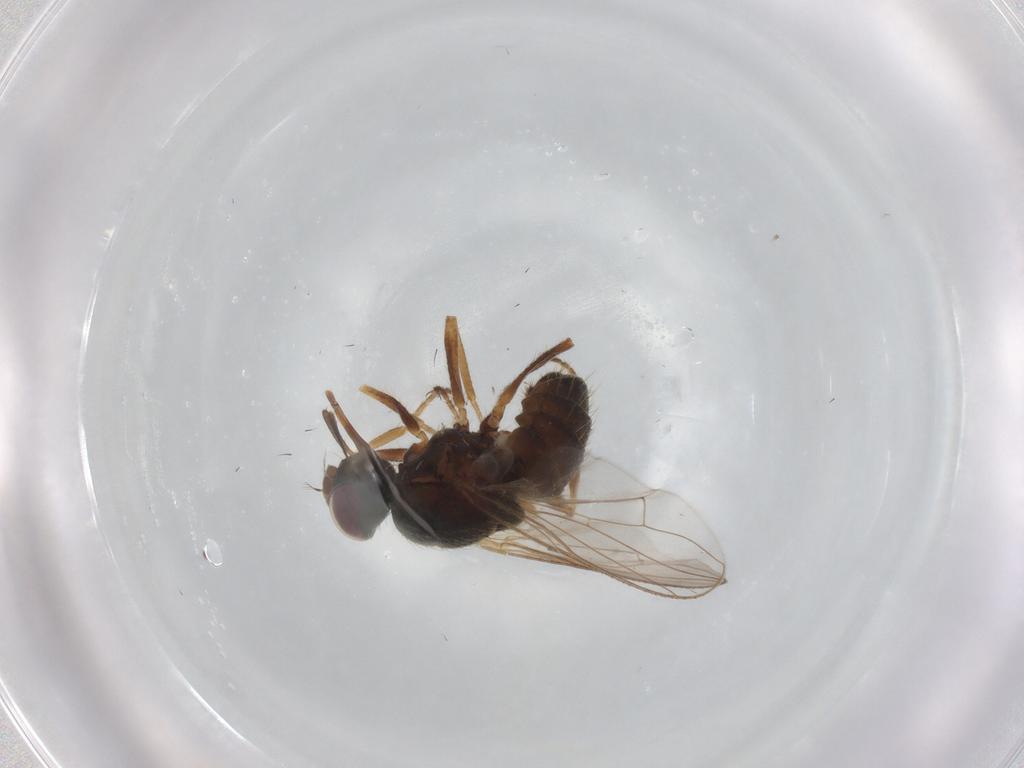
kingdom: Animalia
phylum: Arthropoda
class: Insecta
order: Diptera
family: Muscidae
